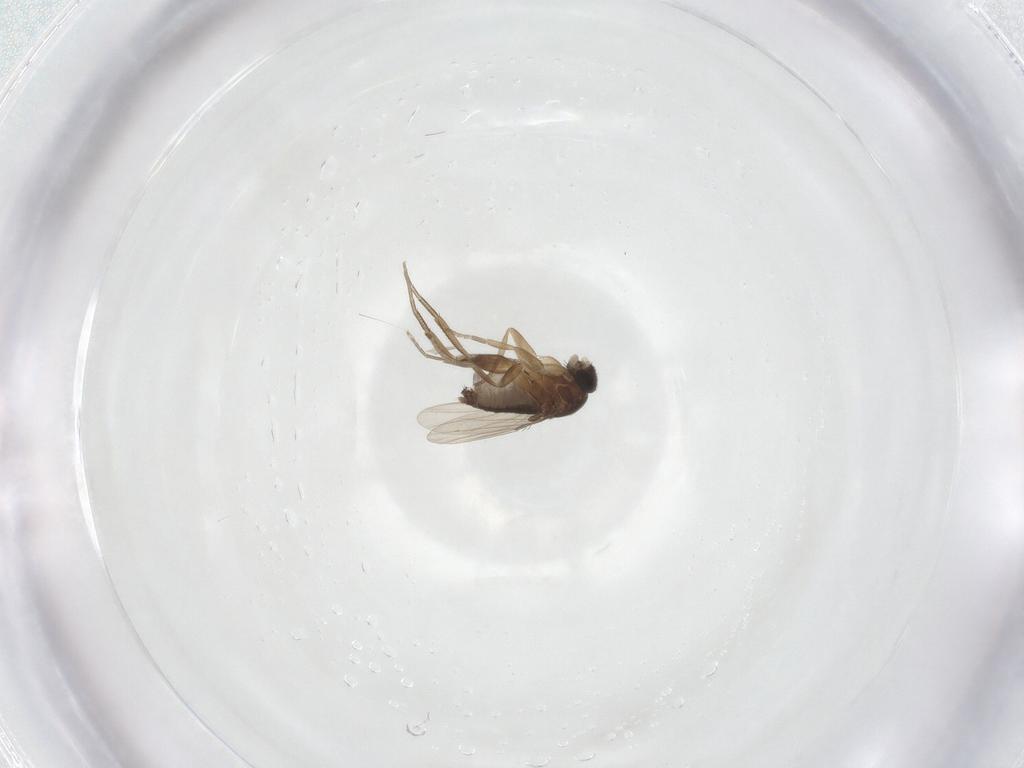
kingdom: Animalia
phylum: Arthropoda
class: Insecta
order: Diptera
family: Phoridae
